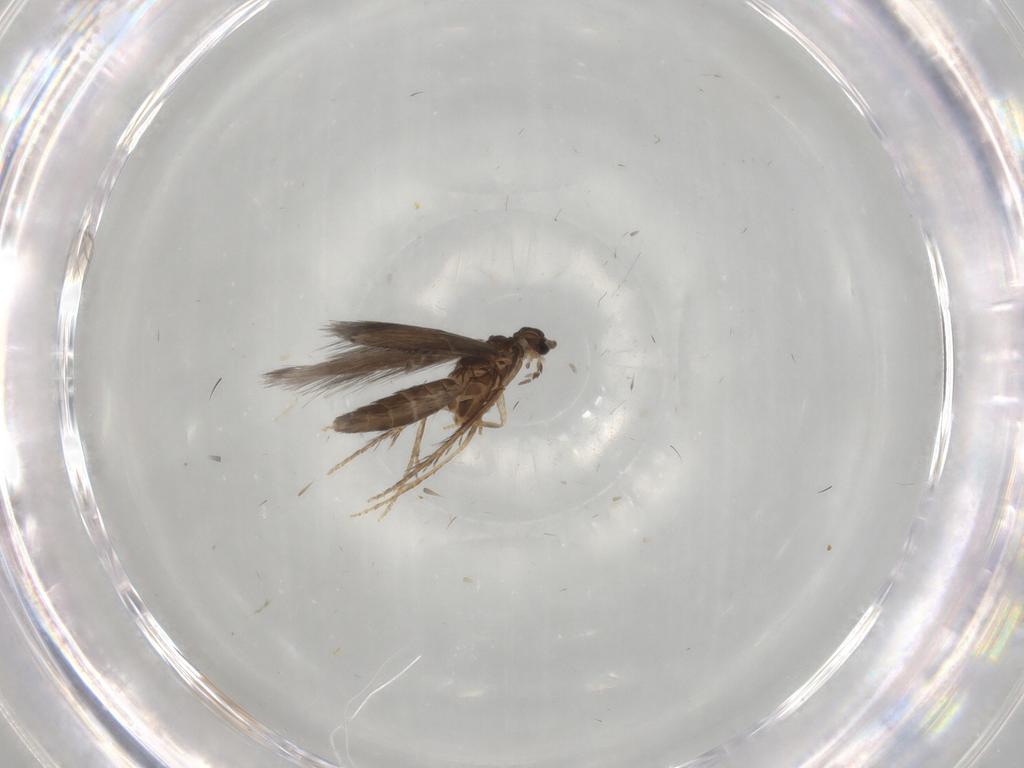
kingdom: Animalia
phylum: Arthropoda
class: Insecta
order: Trichoptera
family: Hydroptilidae
